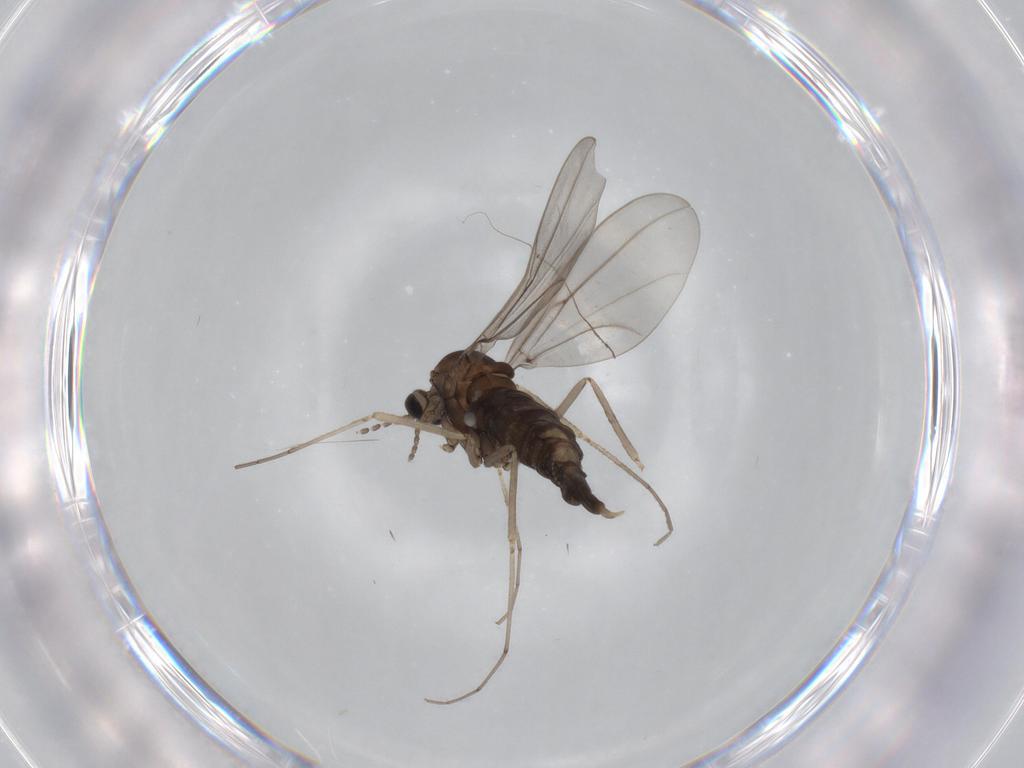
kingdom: Animalia
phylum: Arthropoda
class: Insecta
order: Diptera
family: Cecidomyiidae
